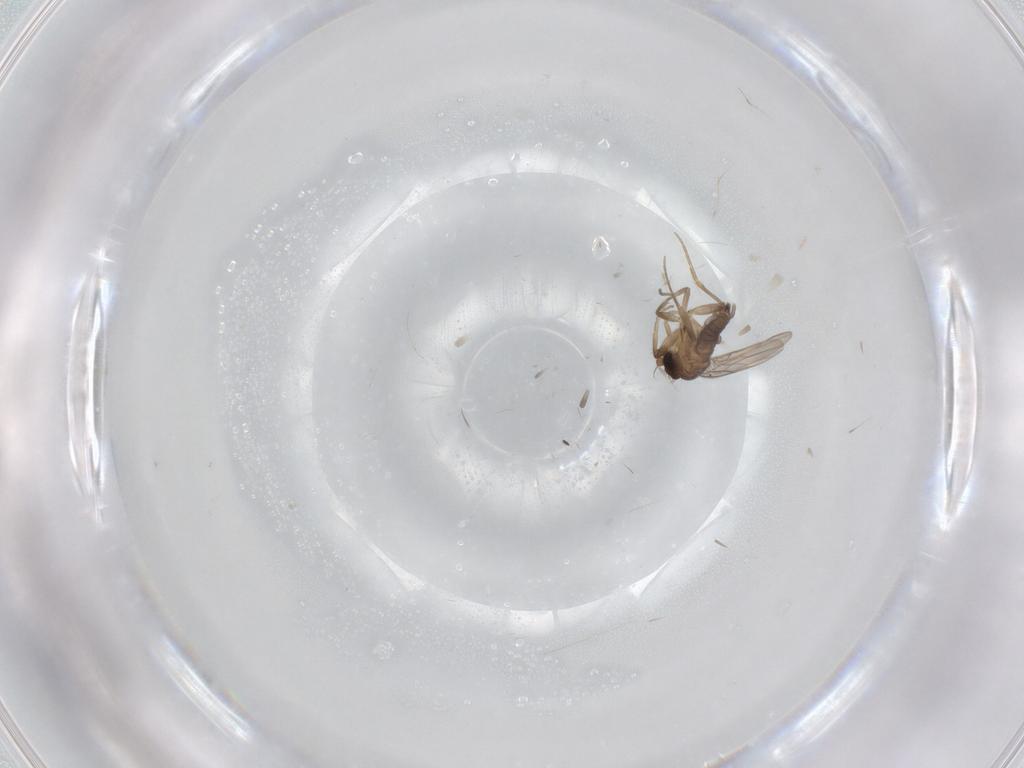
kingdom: Animalia
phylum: Arthropoda
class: Insecta
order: Diptera
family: Phoridae
